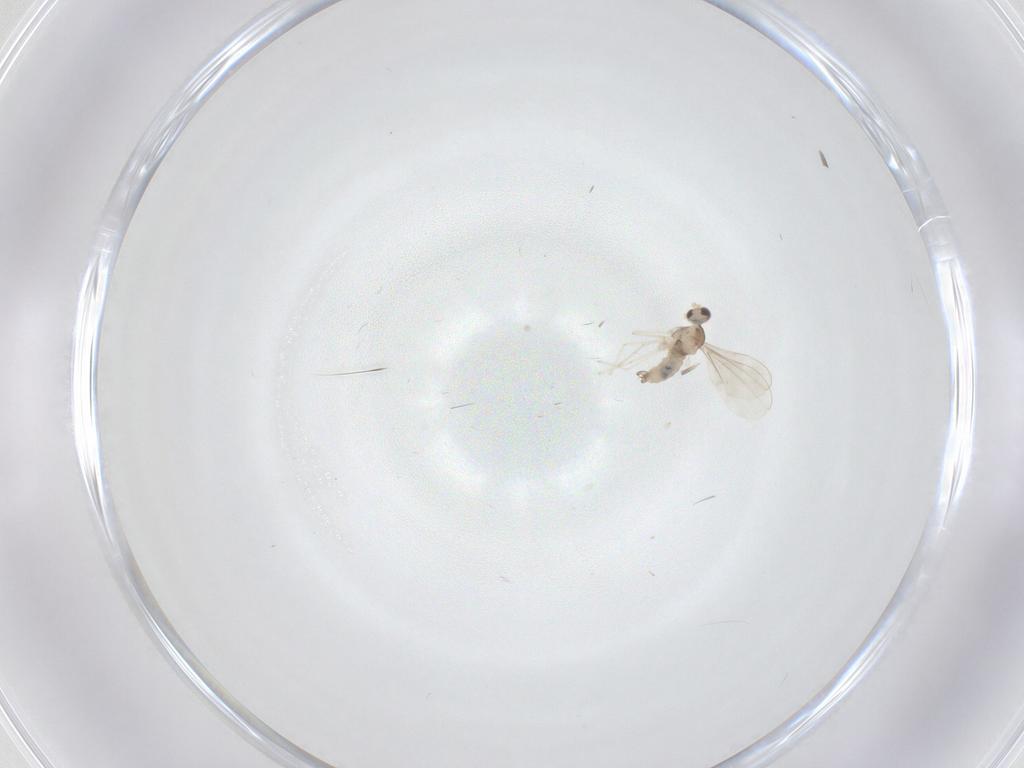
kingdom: Animalia
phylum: Arthropoda
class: Insecta
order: Diptera
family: Cecidomyiidae
